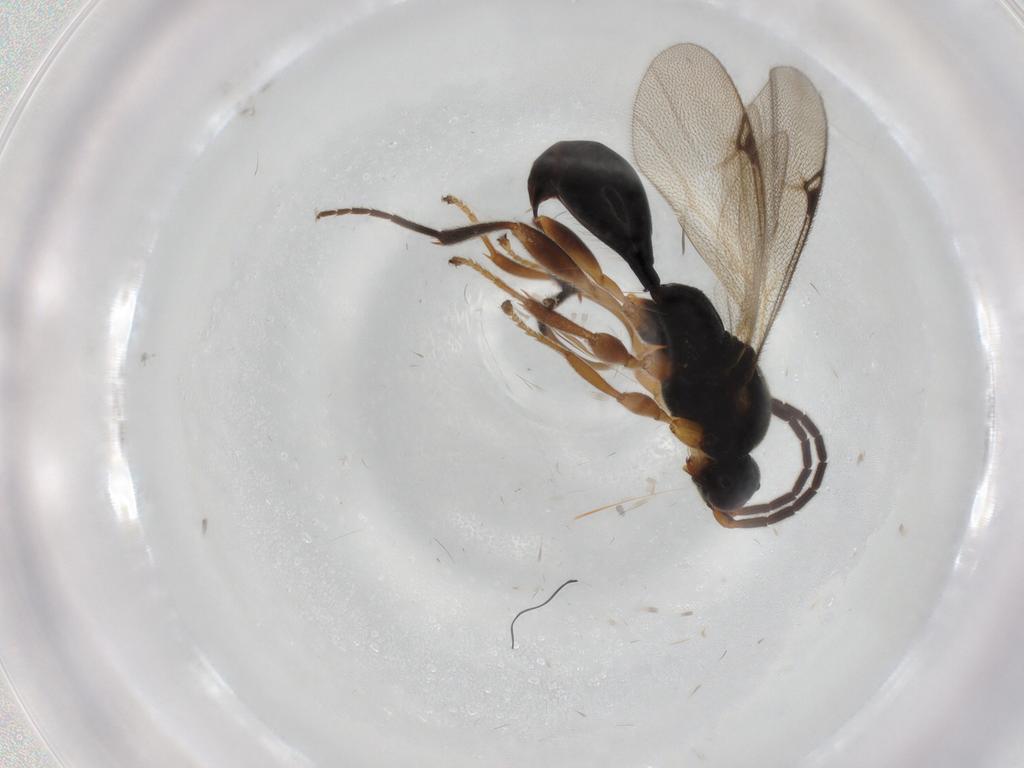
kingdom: Animalia
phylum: Arthropoda
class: Insecta
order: Hymenoptera
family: Proctotrupidae
